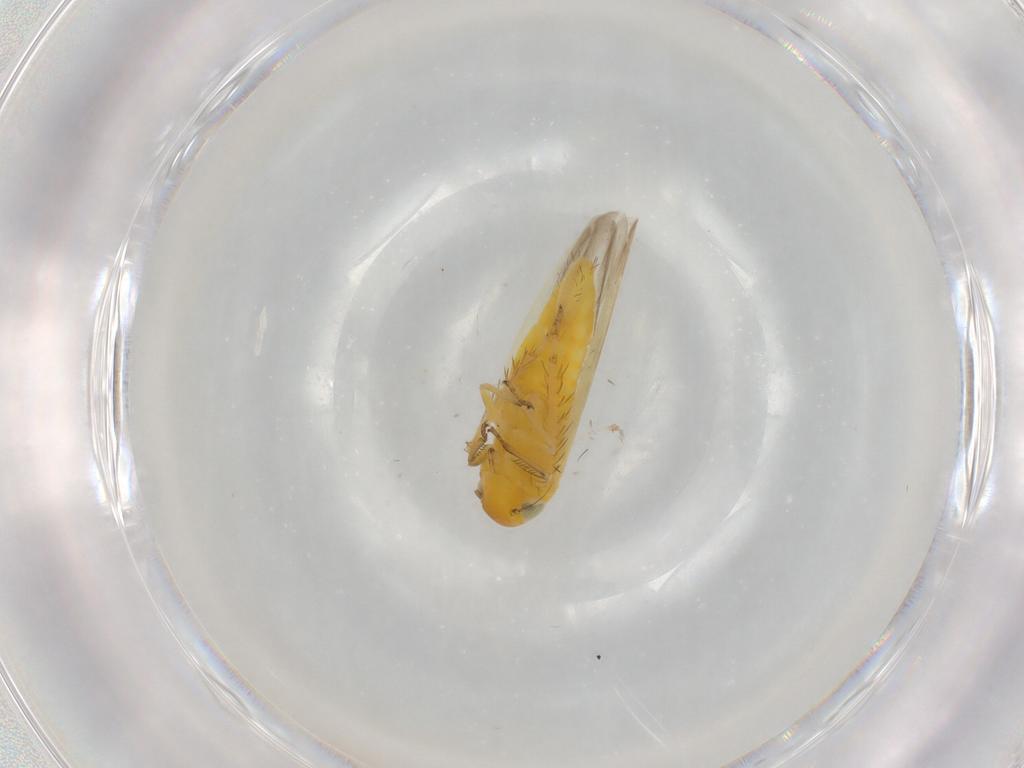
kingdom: Animalia
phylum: Arthropoda
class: Insecta
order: Hemiptera
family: Cicadellidae
